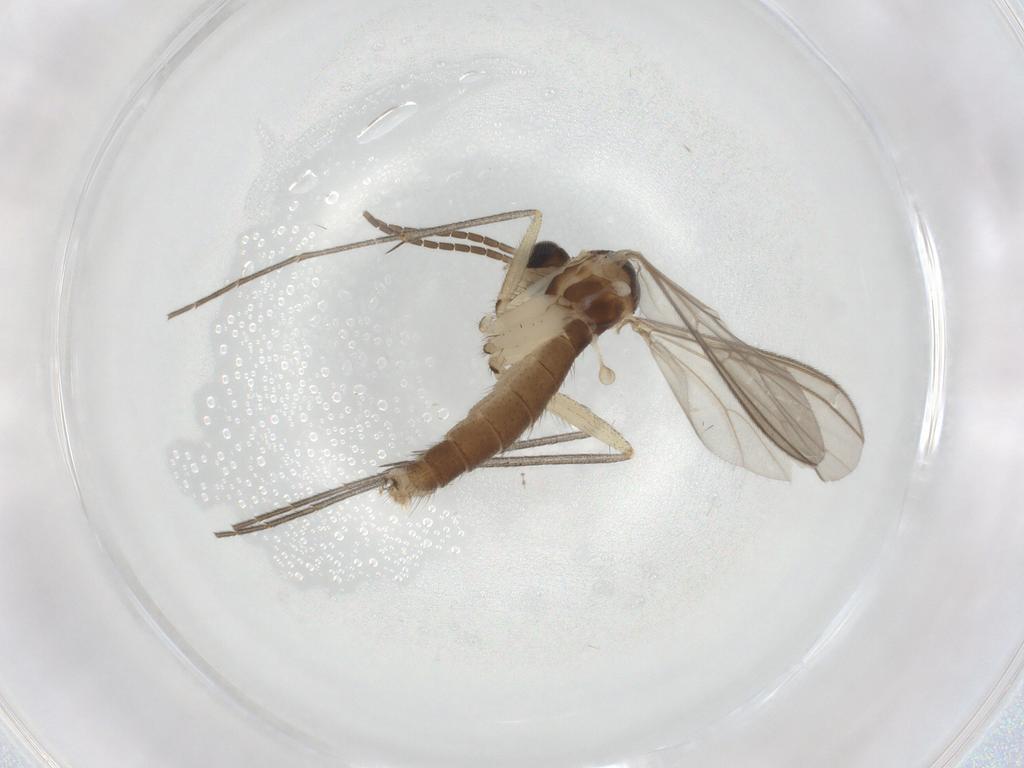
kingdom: Animalia
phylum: Arthropoda
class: Insecta
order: Diptera
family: Mycetophilidae
